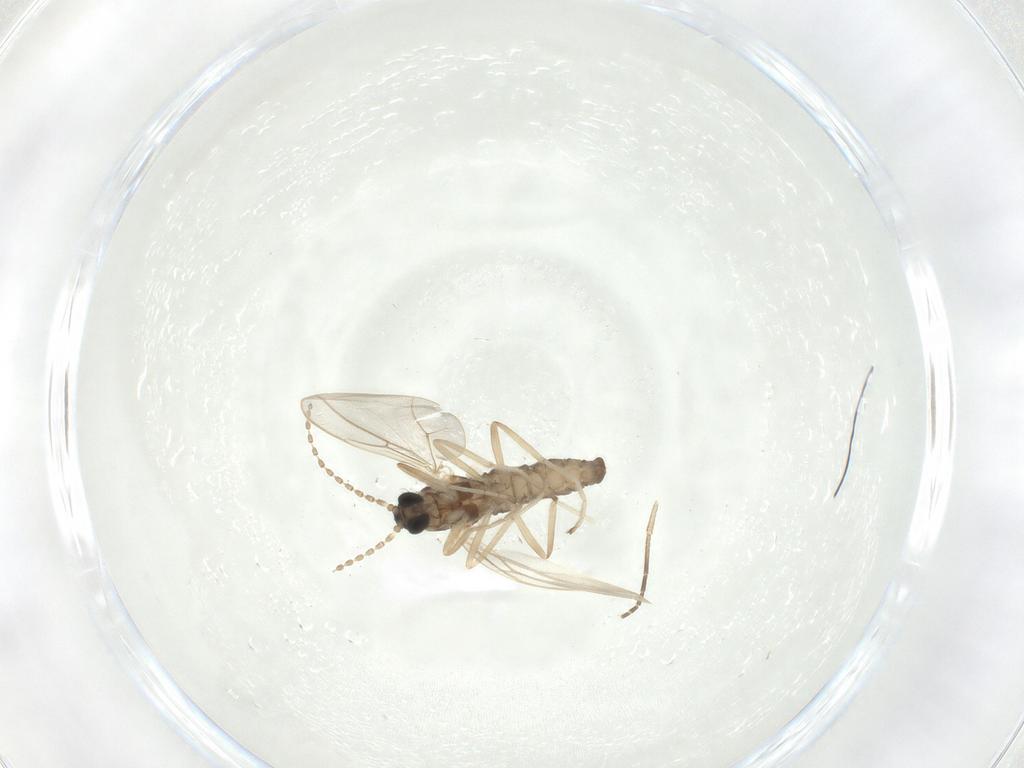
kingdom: Animalia
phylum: Arthropoda
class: Insecta
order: Diptera
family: Cecidomyiidae
